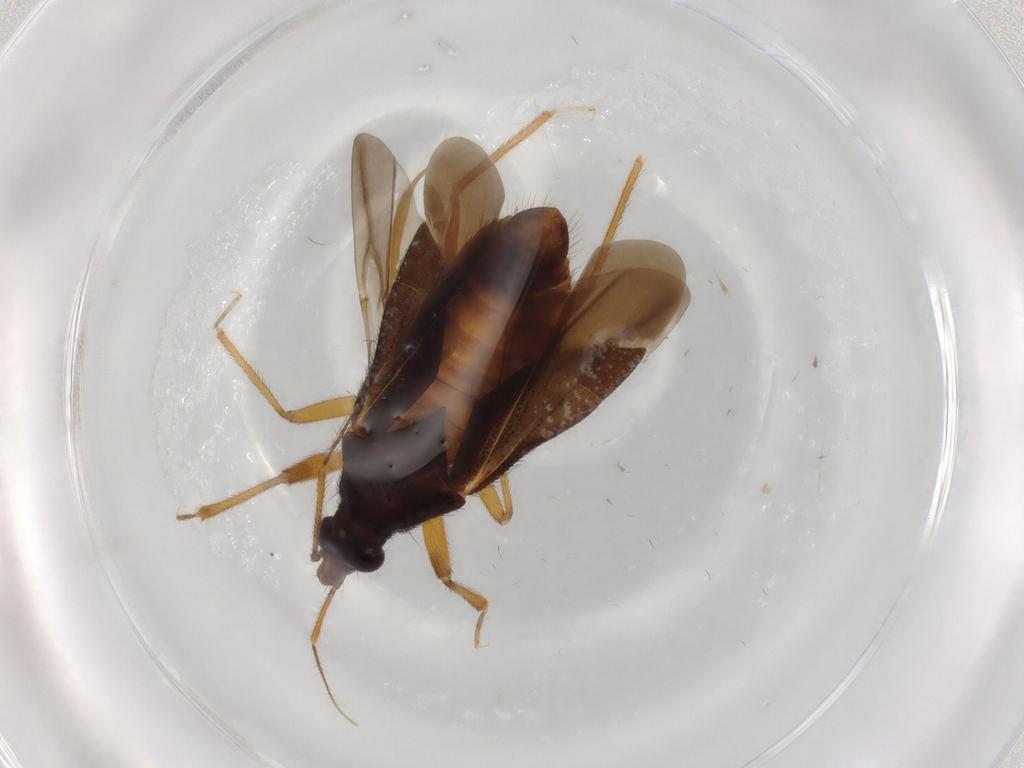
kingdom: Animalia
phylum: Arthropoda
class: Insecta
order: Hemiptera
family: Anthocoridae
